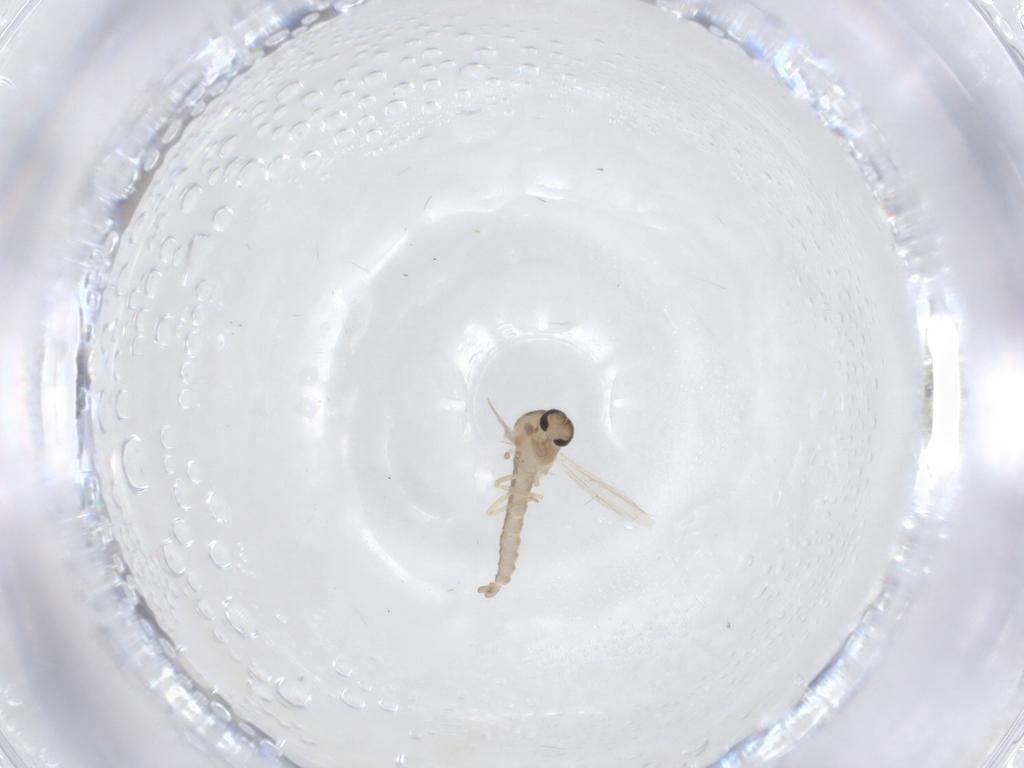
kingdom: Animalia
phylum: Arthropoda
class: Insecta
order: Diptera
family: Ceratopogonidae
